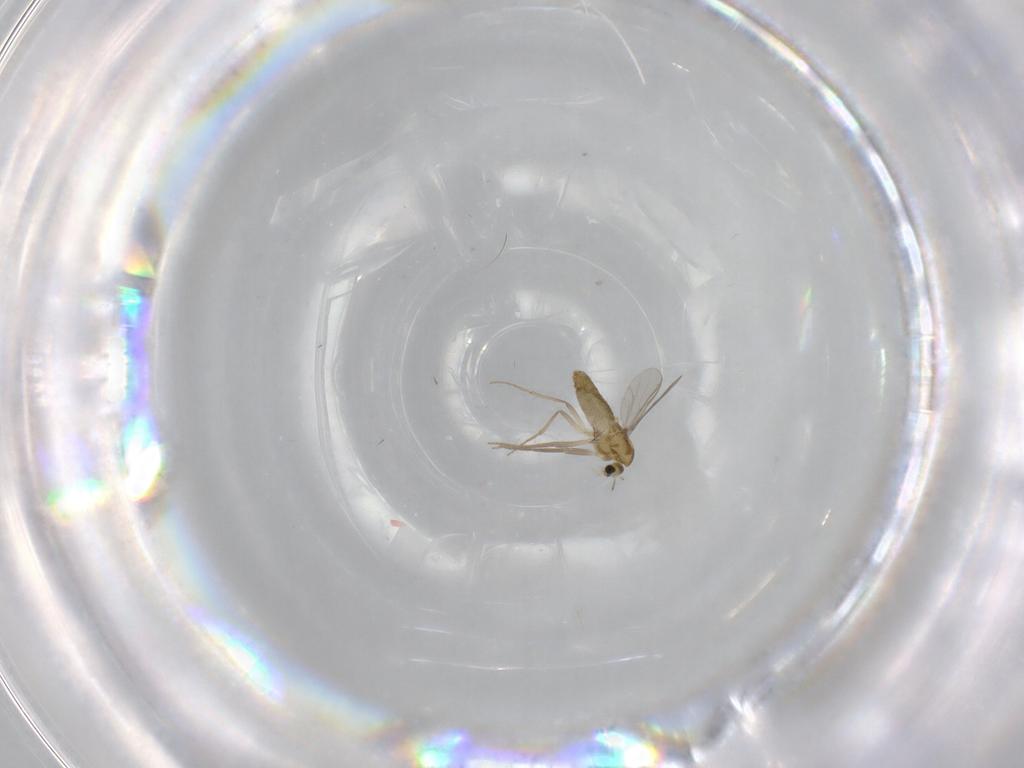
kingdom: Animalia
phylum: Arthropoda
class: Insecta
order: Diptera
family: Chironomidae
